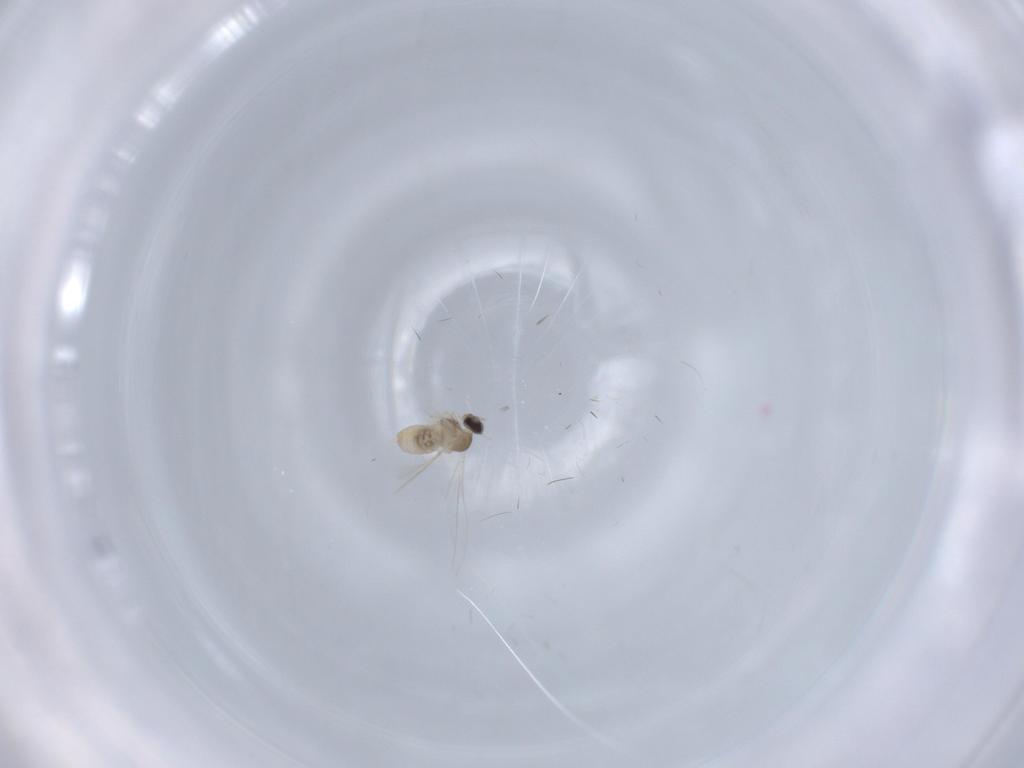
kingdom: Animalia
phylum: Arthropoda
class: Insecta
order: Diptera
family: Cecidomyiidae
